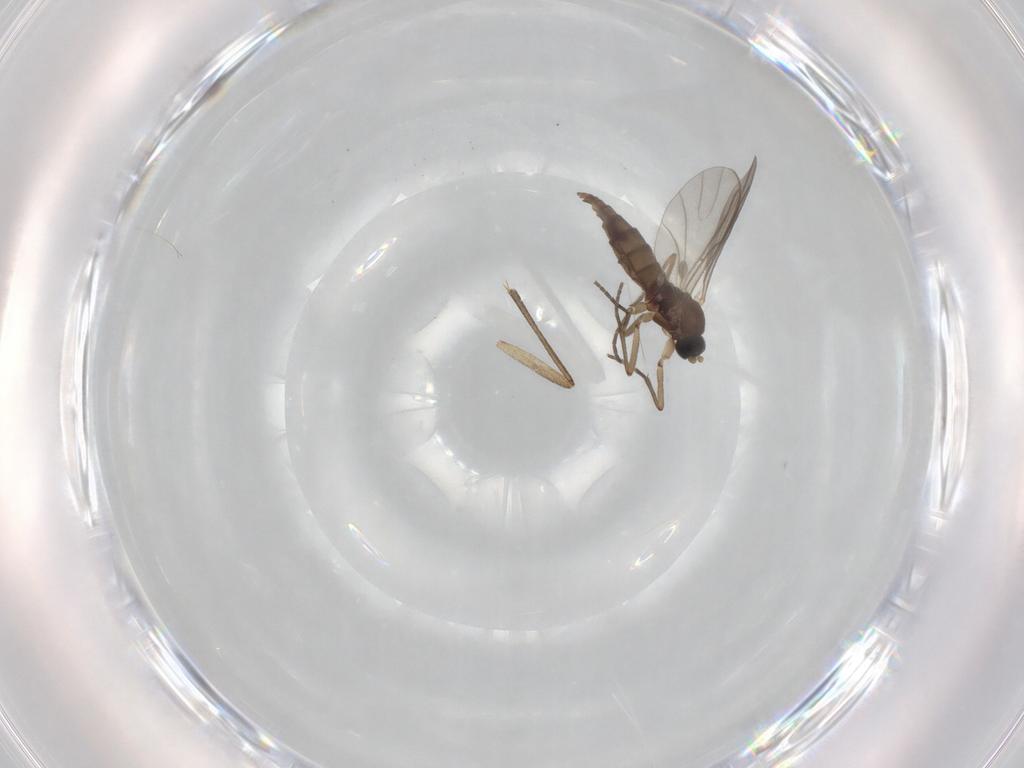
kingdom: Animalia
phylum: Arthropoda
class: Insecta
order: Diptera
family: Sciaridae
